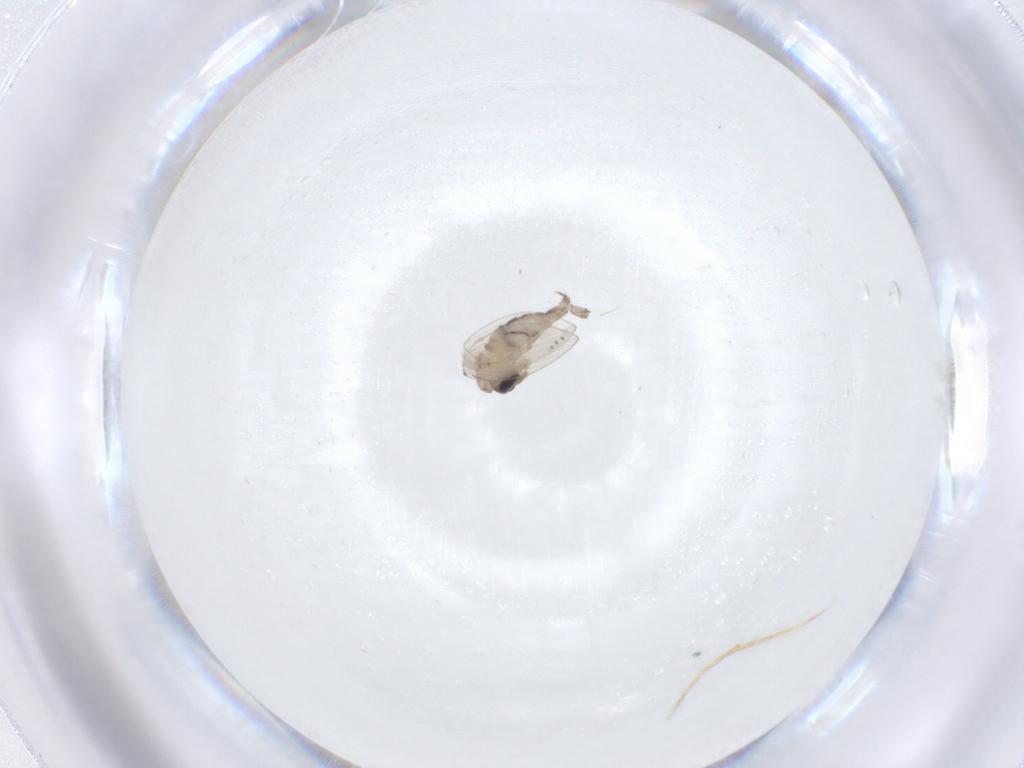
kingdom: Animalia
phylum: Arthropoda
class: Insecta
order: Diptera
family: Psychodidae
